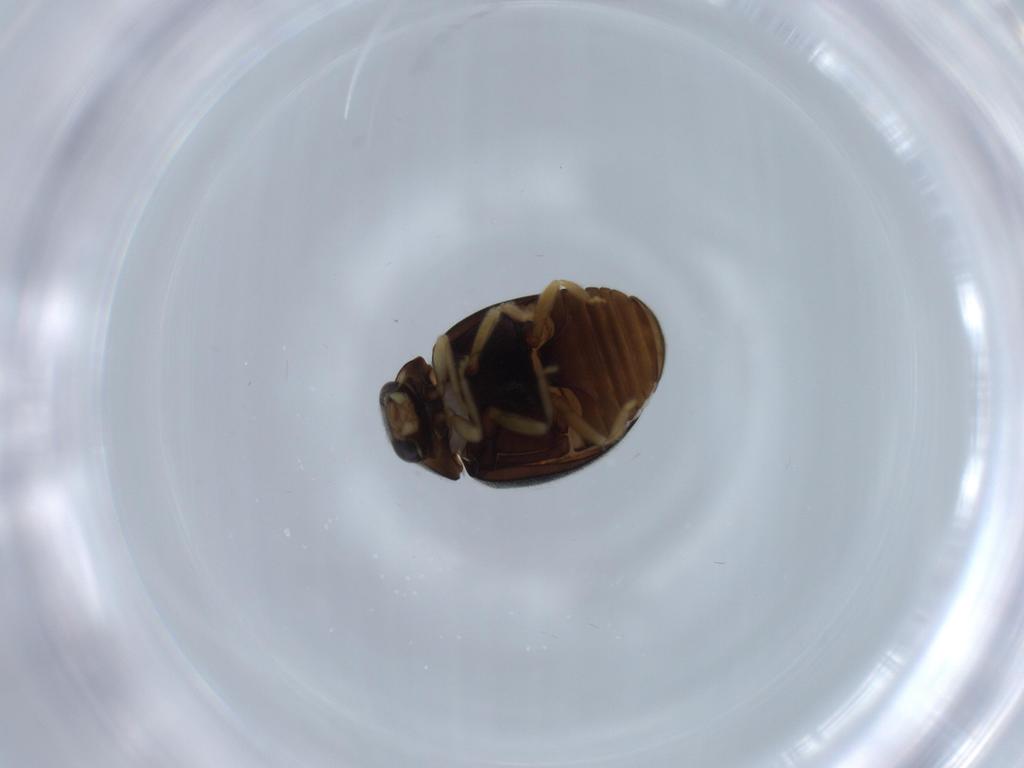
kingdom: Animalia
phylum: Arthropoda
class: Insecta
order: Coleoptera
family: Coccinellidae
